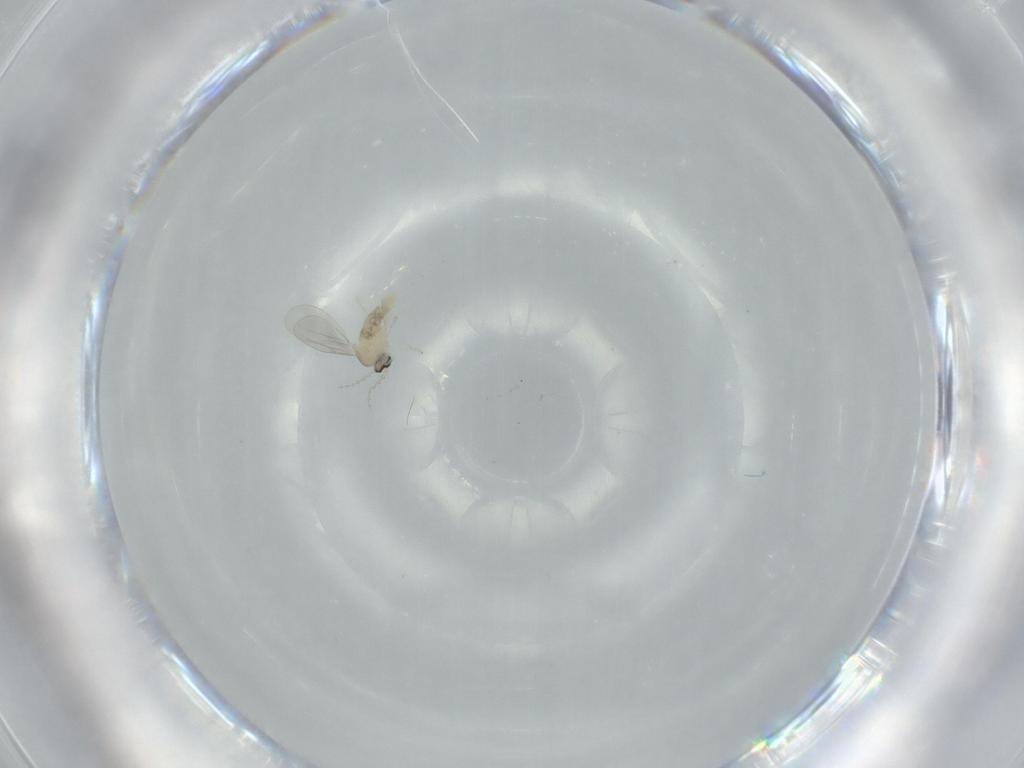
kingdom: Animalia
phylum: Arthropoda
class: Insecta
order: Diptera
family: Cecidomyiidae
